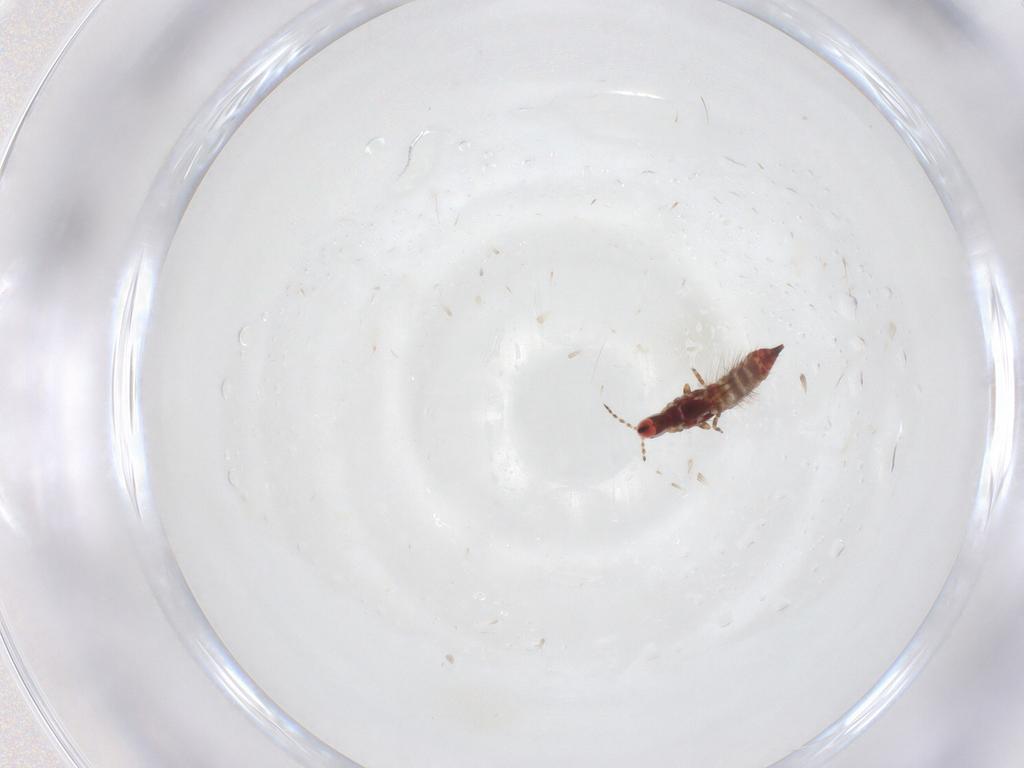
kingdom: Animalia
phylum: Arthropoda
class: Insecta
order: Thysanoptera
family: Phlaeothripidae
